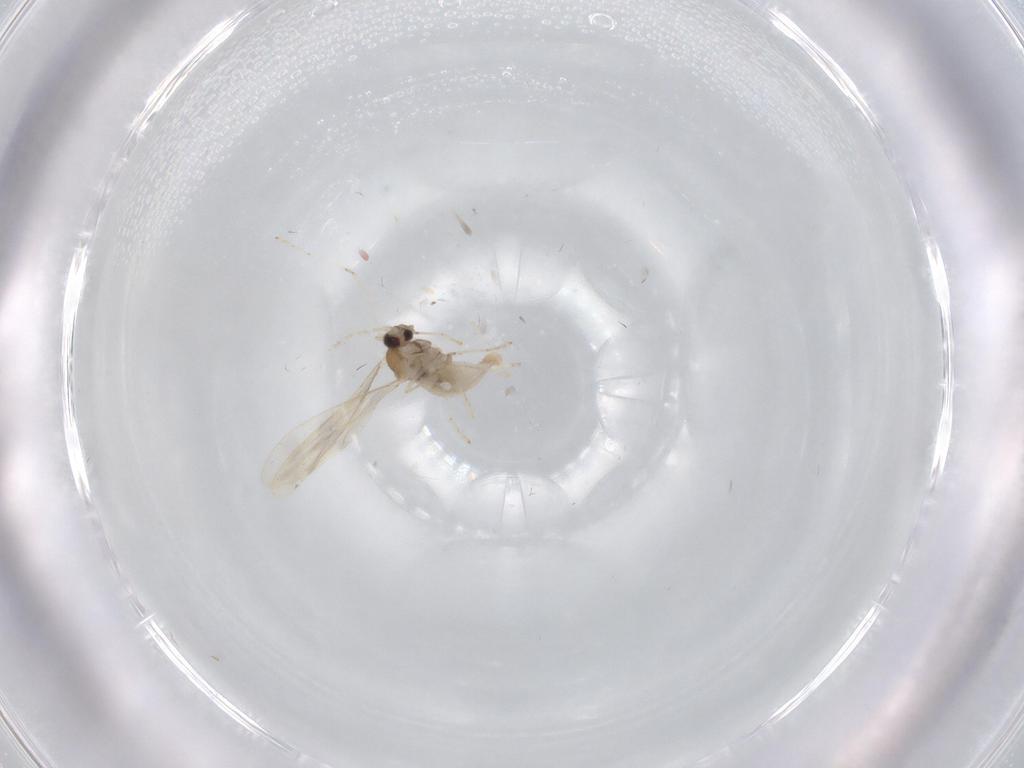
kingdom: Animalia
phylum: Arthropoda
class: Insecta
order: Diptera
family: Cecidomyiidae
